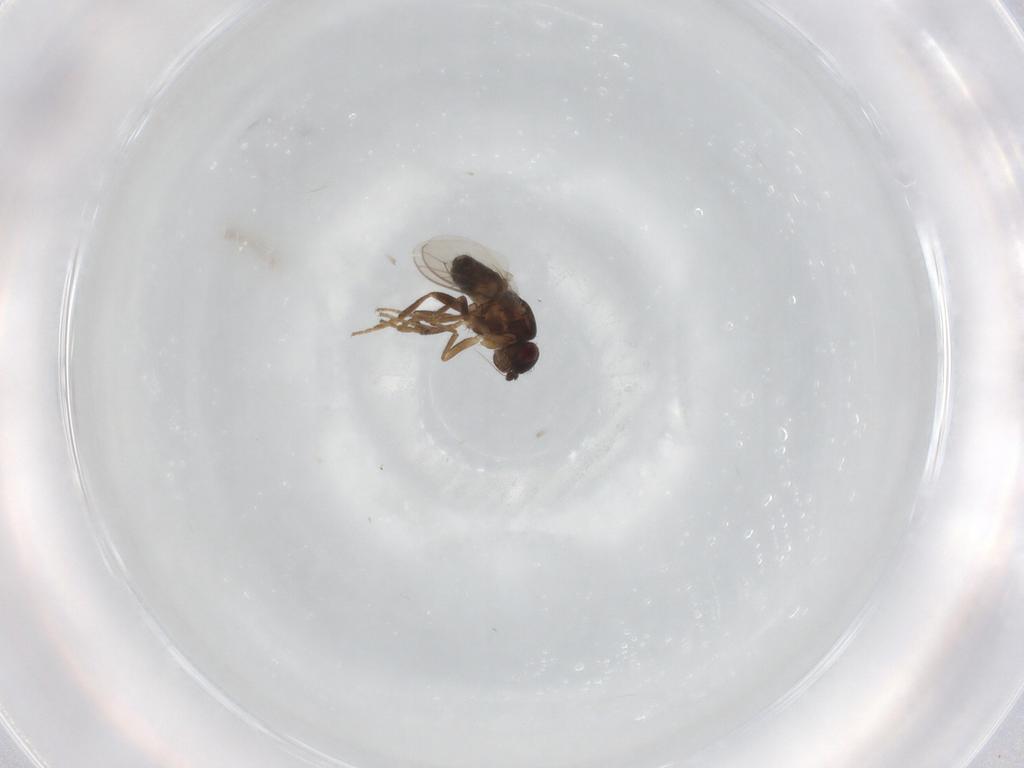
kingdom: Animalia
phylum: Arthropoda
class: Insecta
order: Diptera
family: Sphaeroceridae
